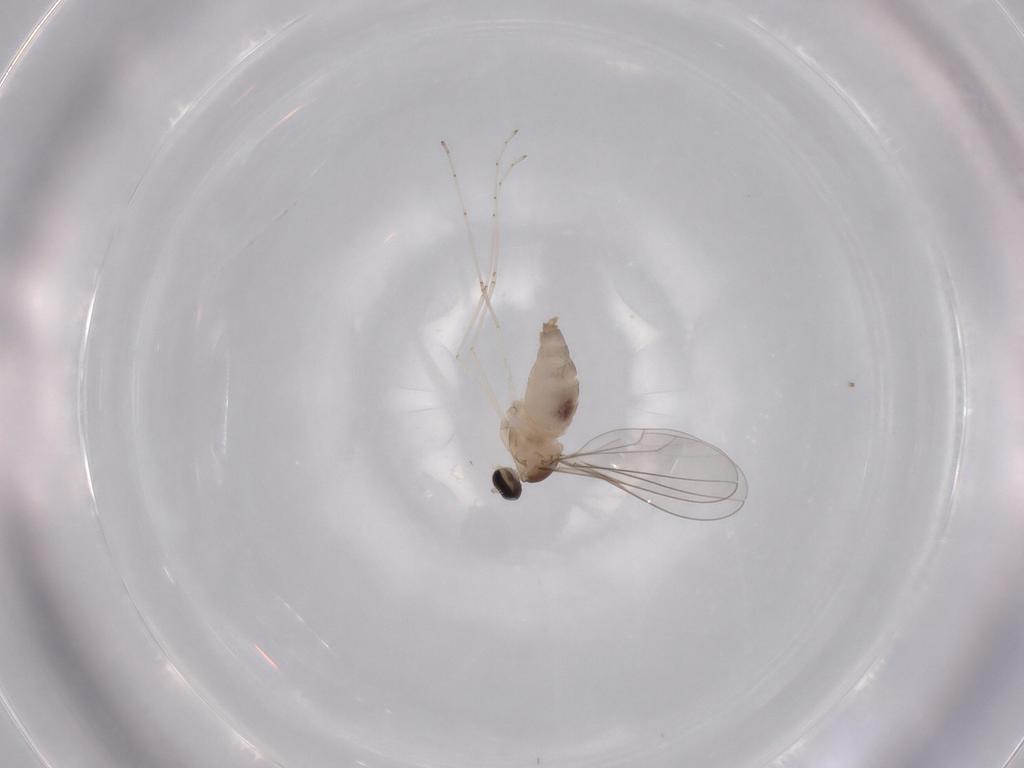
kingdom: Animalia
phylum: Arthropoda
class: Insecta
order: Diptera
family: Cecidomyiidae
